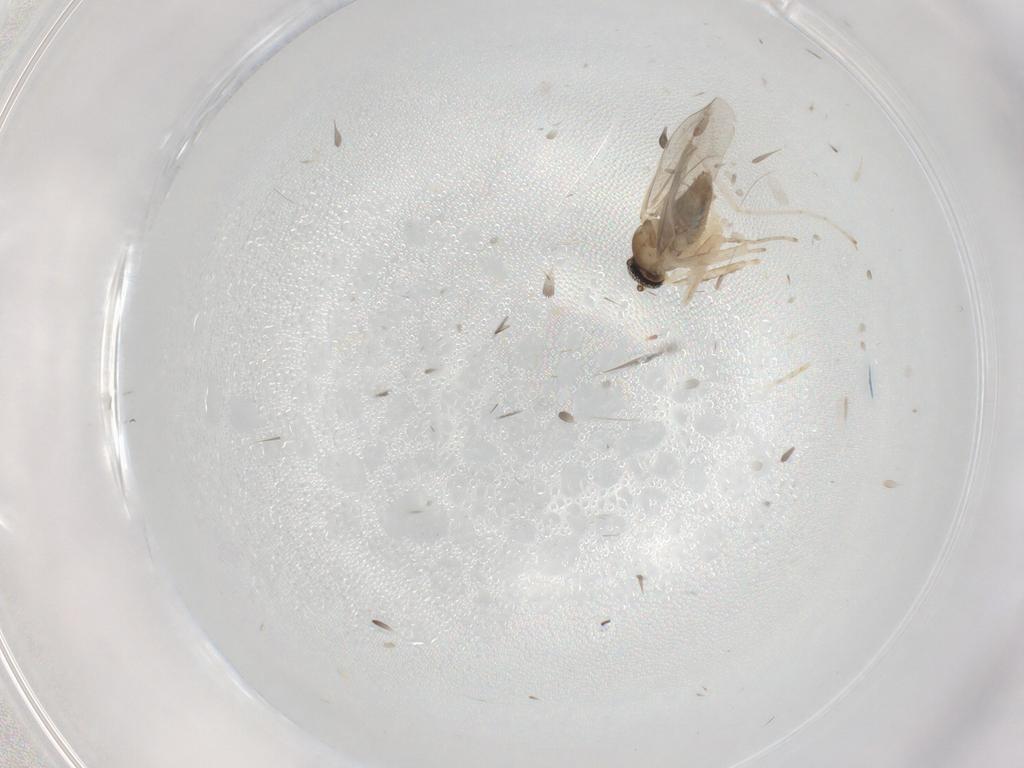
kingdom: Animalia
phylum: Arthropoda
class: Insecta
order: Diptera
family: Sciaridae
